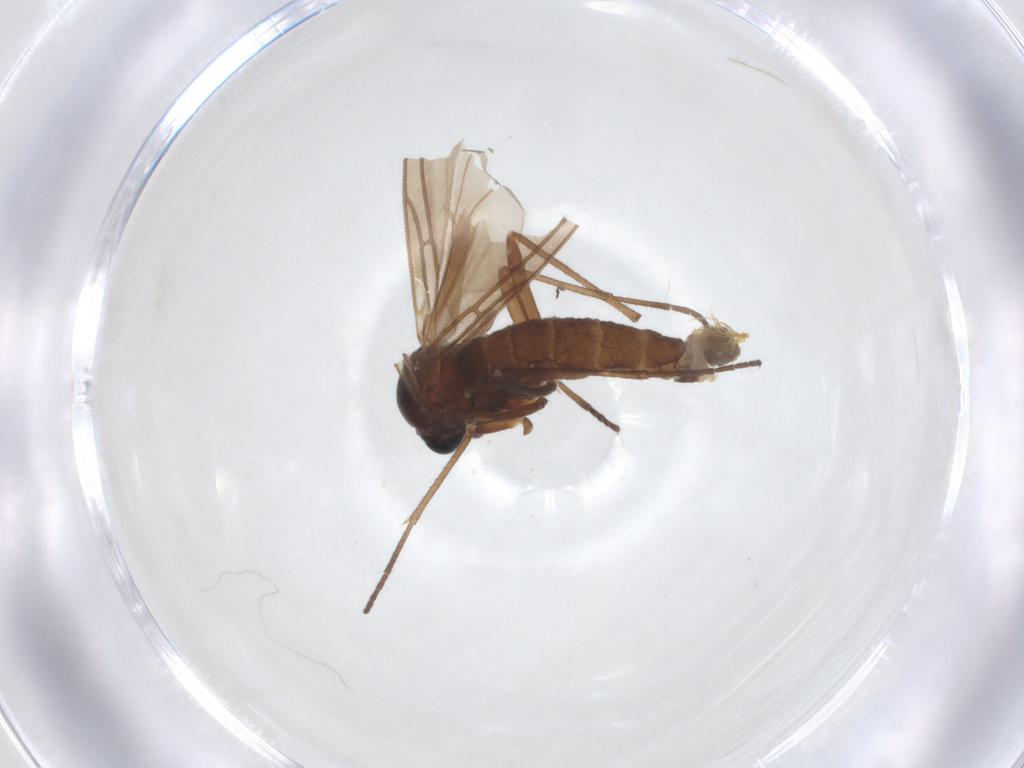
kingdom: Animalia
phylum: Arthropoda
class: Insecta
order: Diptera
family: Sciaridae
